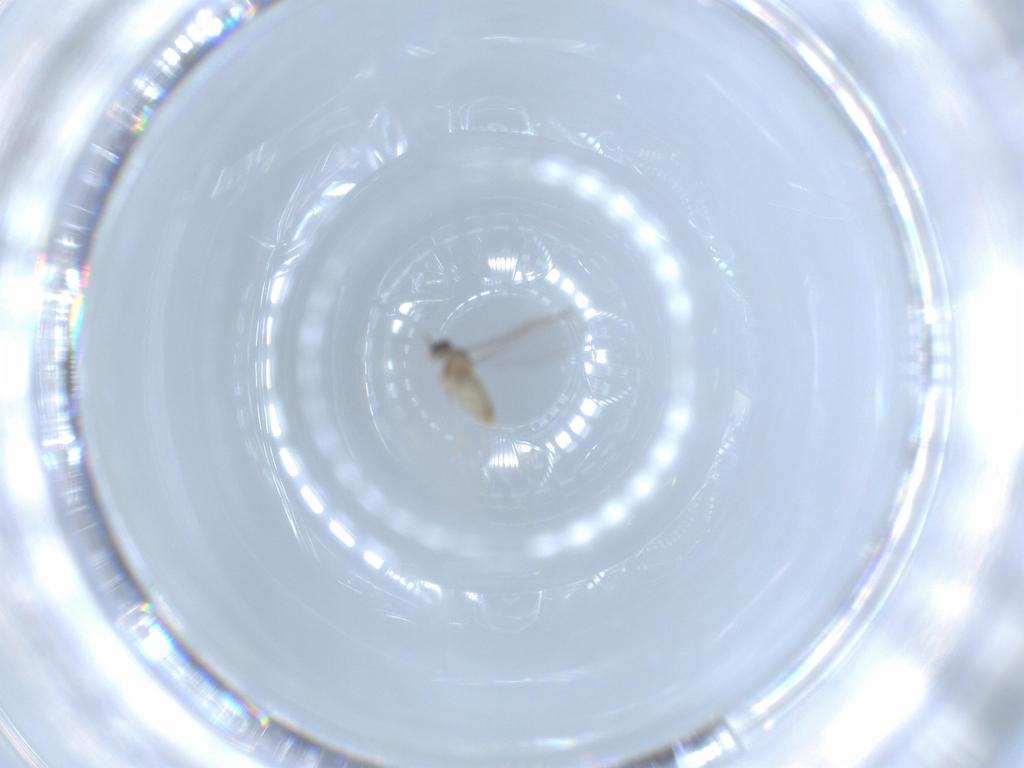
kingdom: Animalia
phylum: Arthropoda
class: Insecta
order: Diptera
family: Cecidomyiidae
